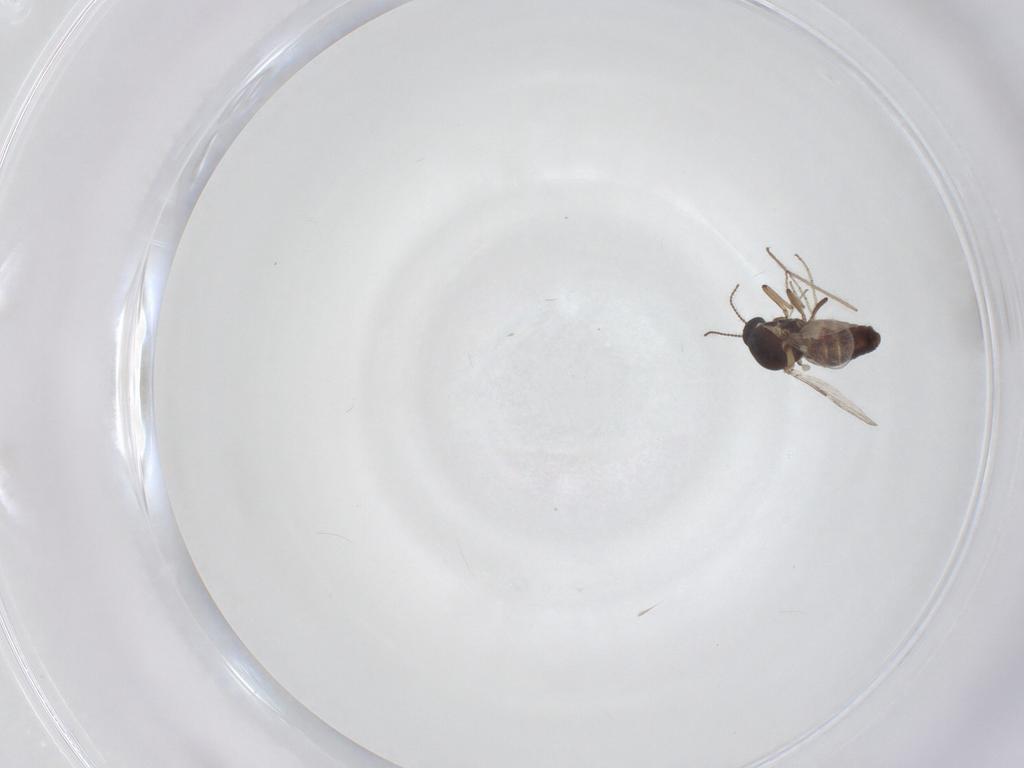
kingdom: Animalia
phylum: Arthropoda
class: Insecta
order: Diptera
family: Ceratopogonidae
